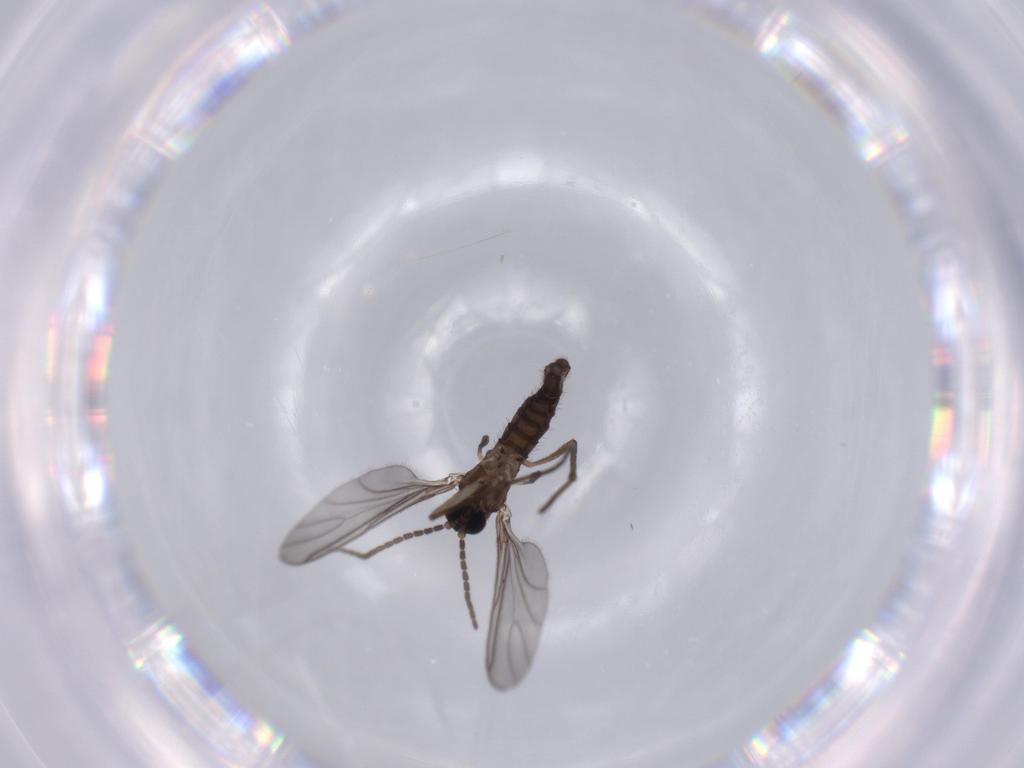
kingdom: Animalia
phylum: Arthropoda
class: Insecta
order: Diptera
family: Sciaridae
